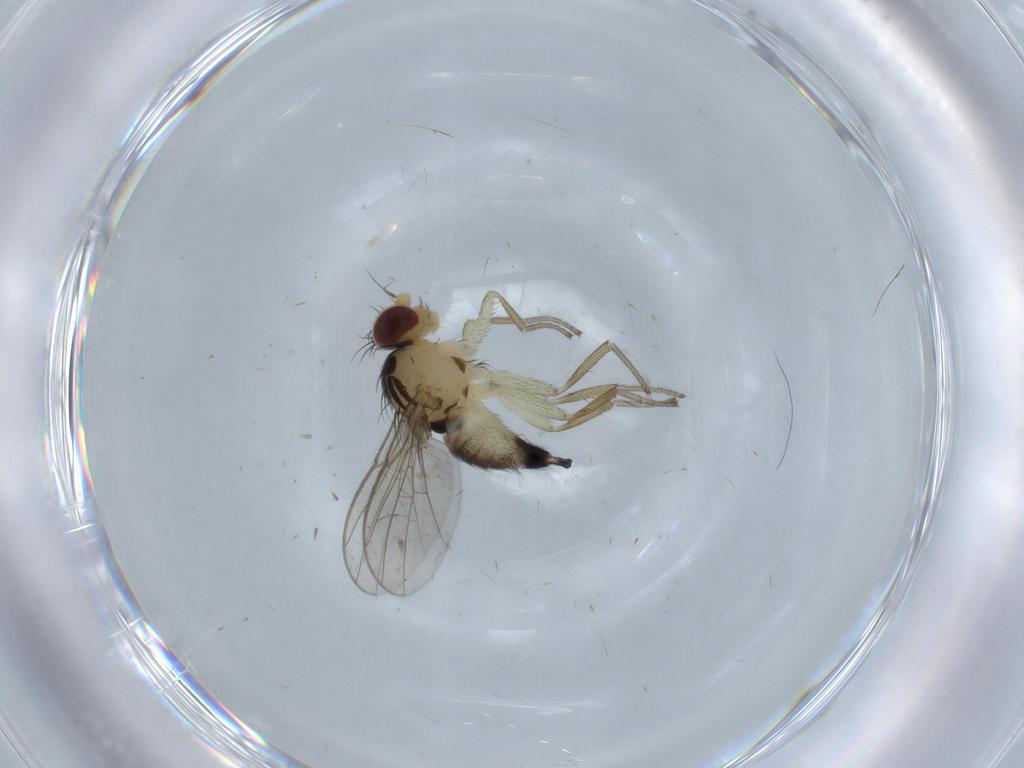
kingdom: Animalia
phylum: Arthropoda
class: Insecta
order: Diptera
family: Agromyzidae
